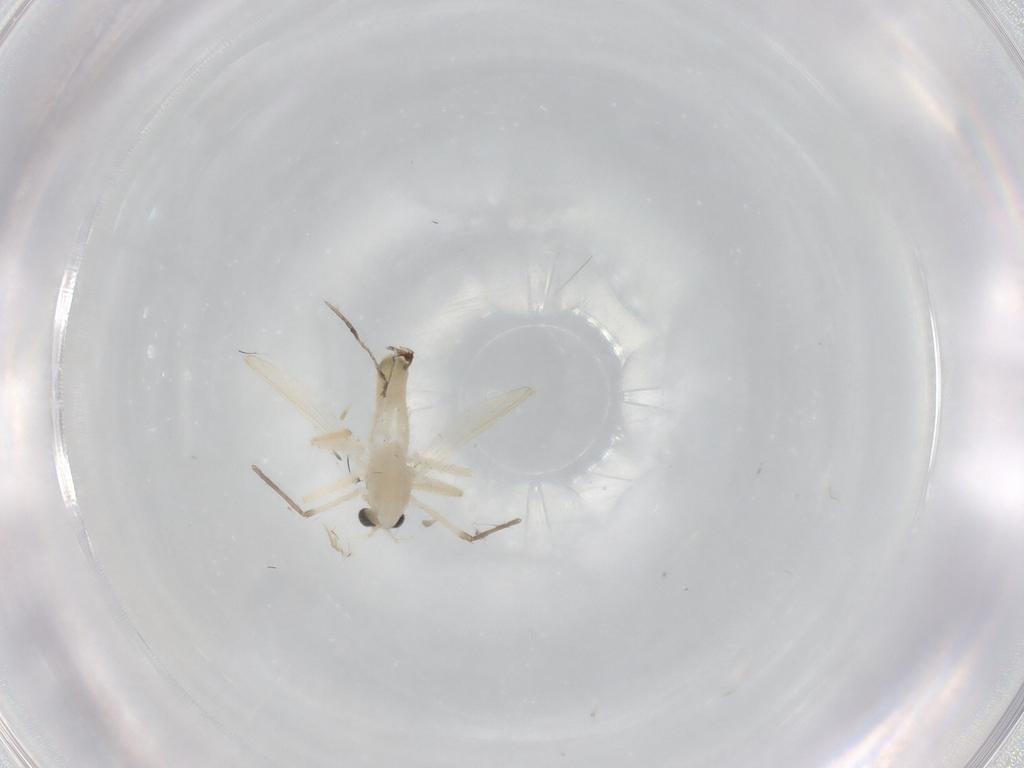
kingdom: Animalia
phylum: Arthropoda
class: Insecta
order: Diptera
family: Chironomidae
